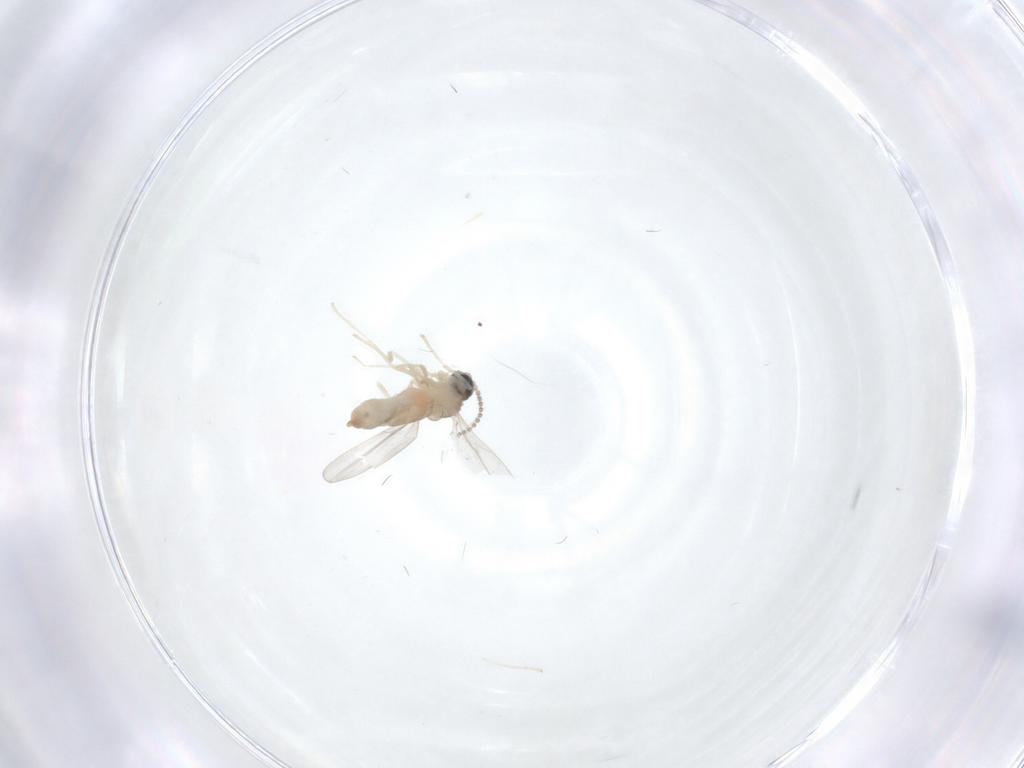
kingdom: Animalia
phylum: Arthropoda
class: Insecta
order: Diptera
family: Cecidomyiidae
